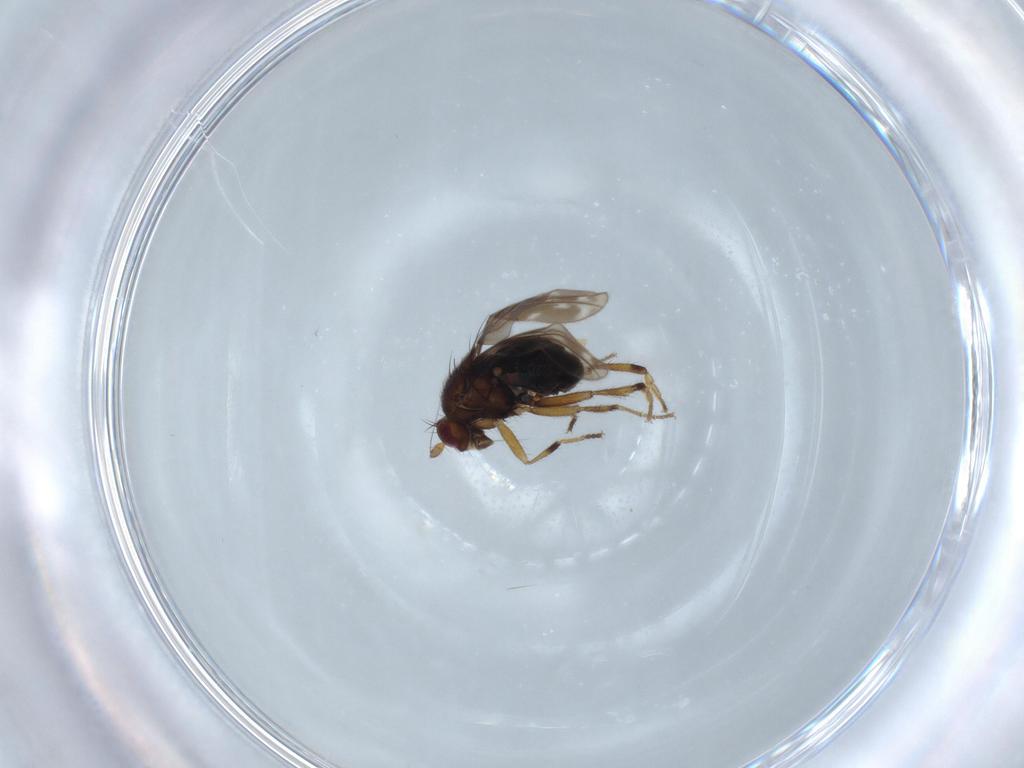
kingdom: Animalia
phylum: Arthropoda
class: Insecta
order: Diptera
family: Sphaeroceridae
